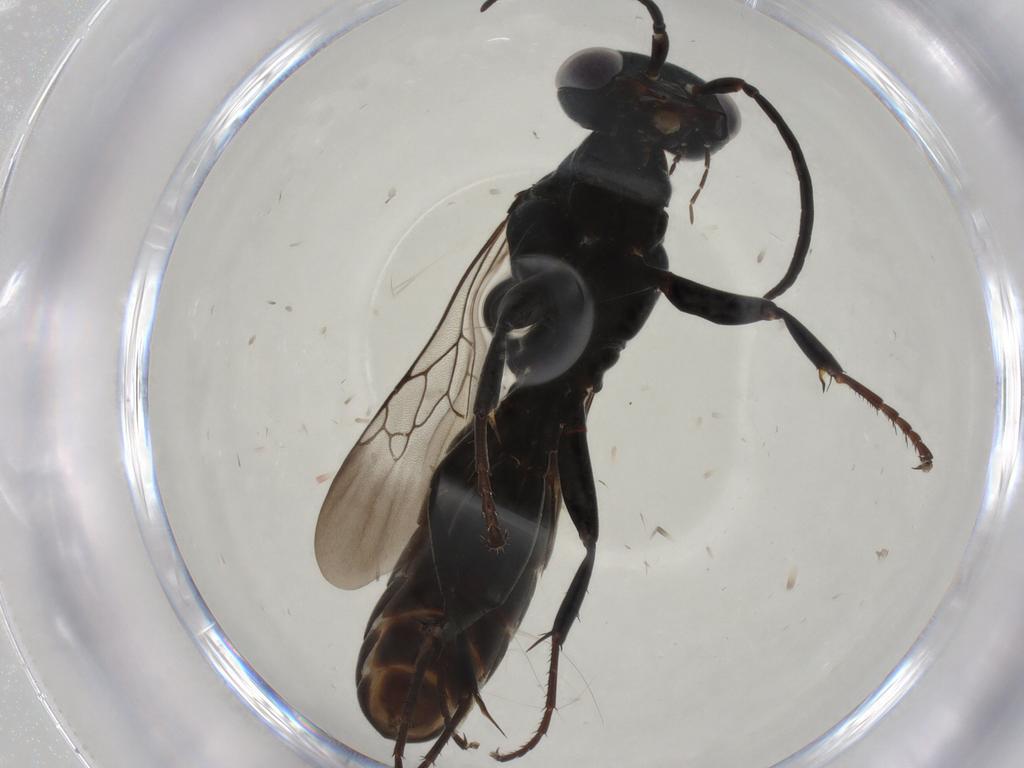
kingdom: Animalia
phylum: Arthropoda
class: Insecta
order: Hymenoptera
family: Crabronidae
